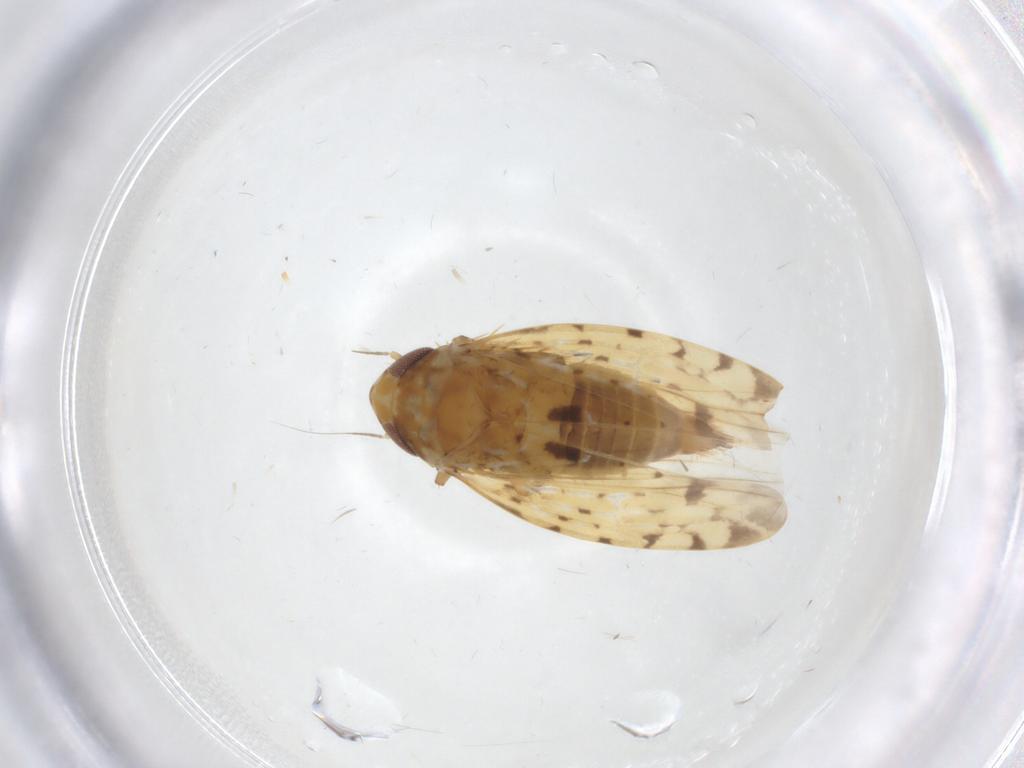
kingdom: Animalia
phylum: Arthropoda
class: Insecta
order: Hemiptera
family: Cicadellidae
